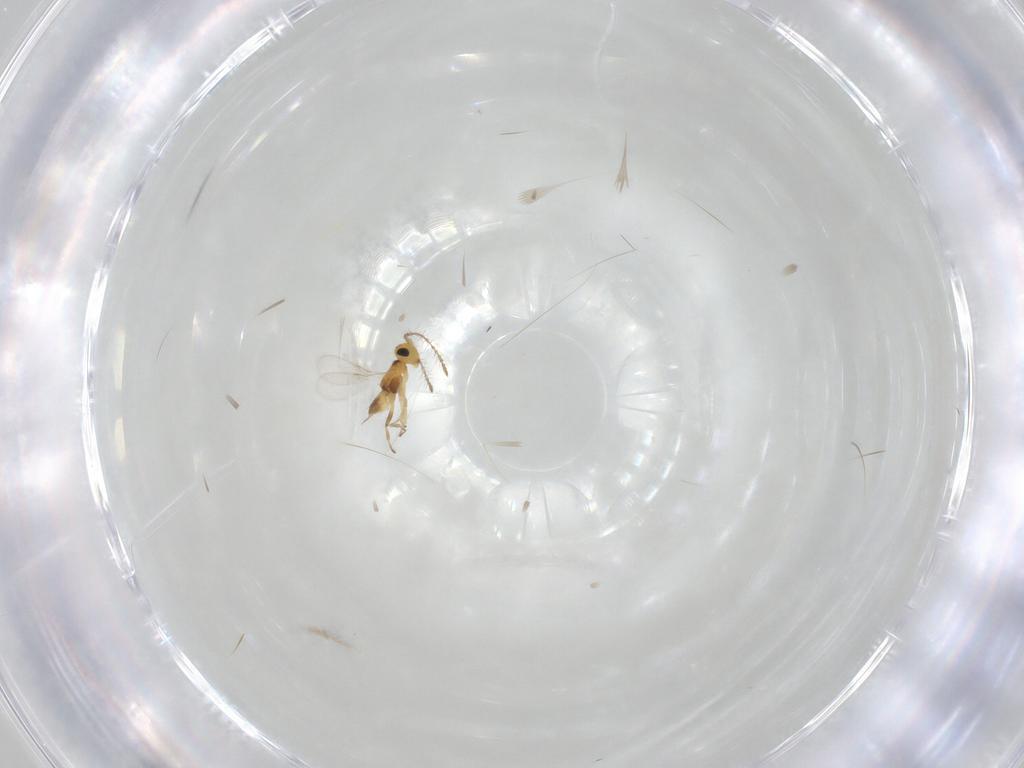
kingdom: Animalia
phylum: Arthropoda
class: Insecta
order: Hymenoptera
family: Encyrtidae
